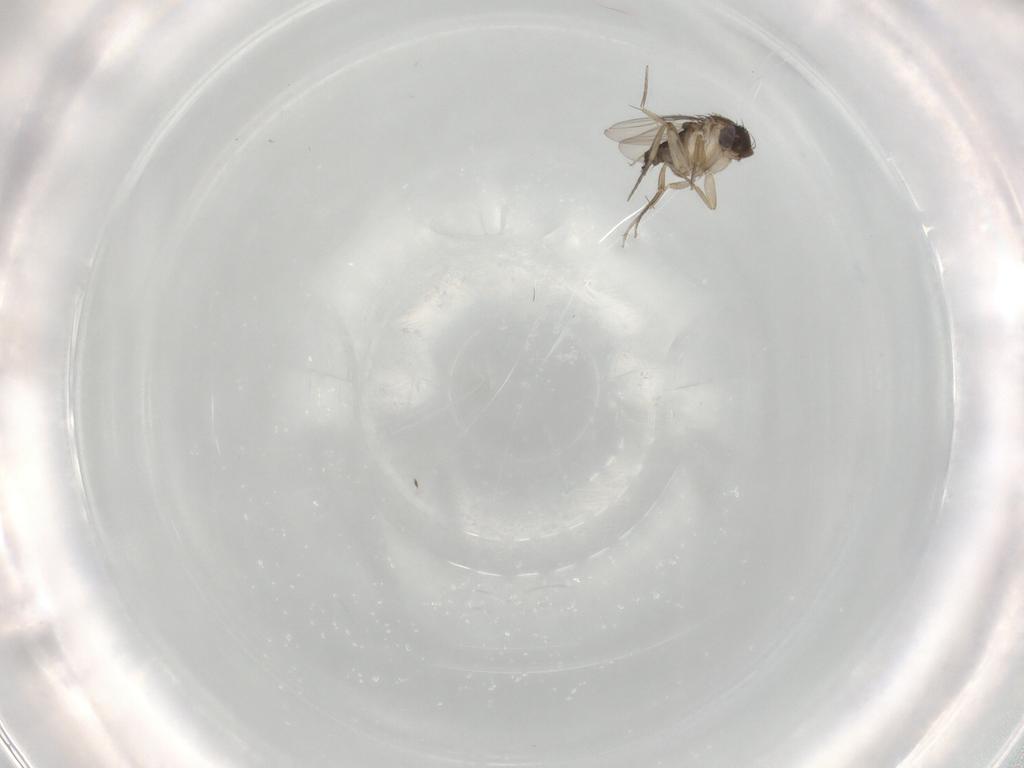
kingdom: Animalia
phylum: Arthropoda
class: Insecta
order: Diptera
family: Phoridae
